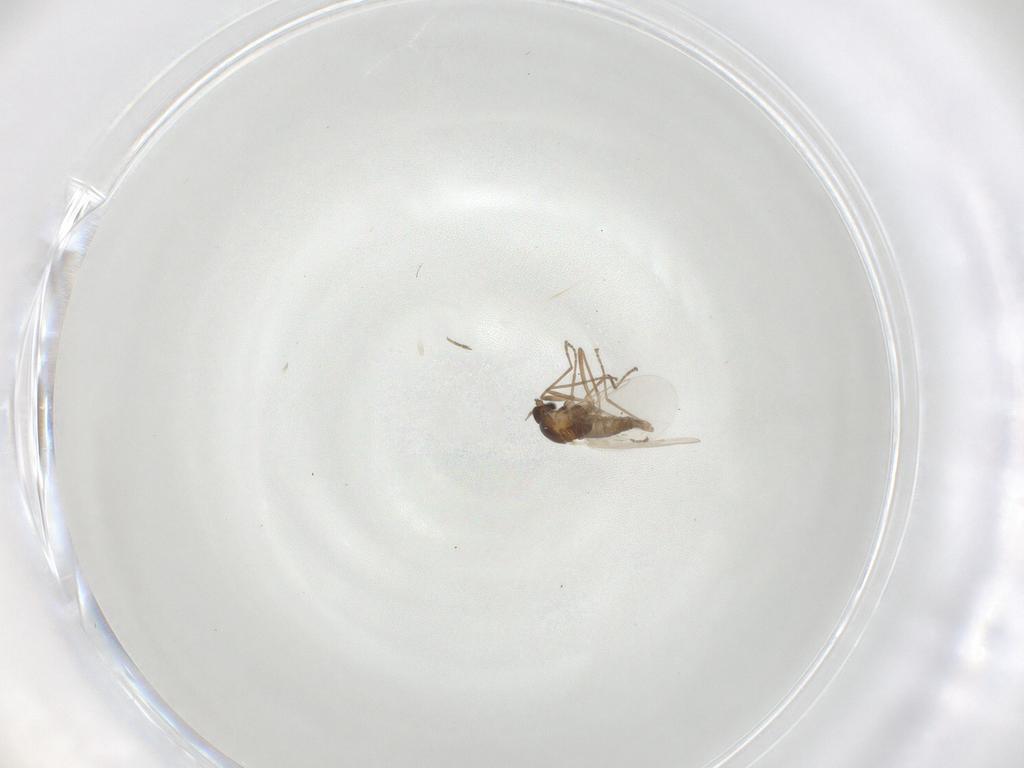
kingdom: Animalia
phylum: Arthropoda
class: Insecta
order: Diptera
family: Cecidomyiidae
